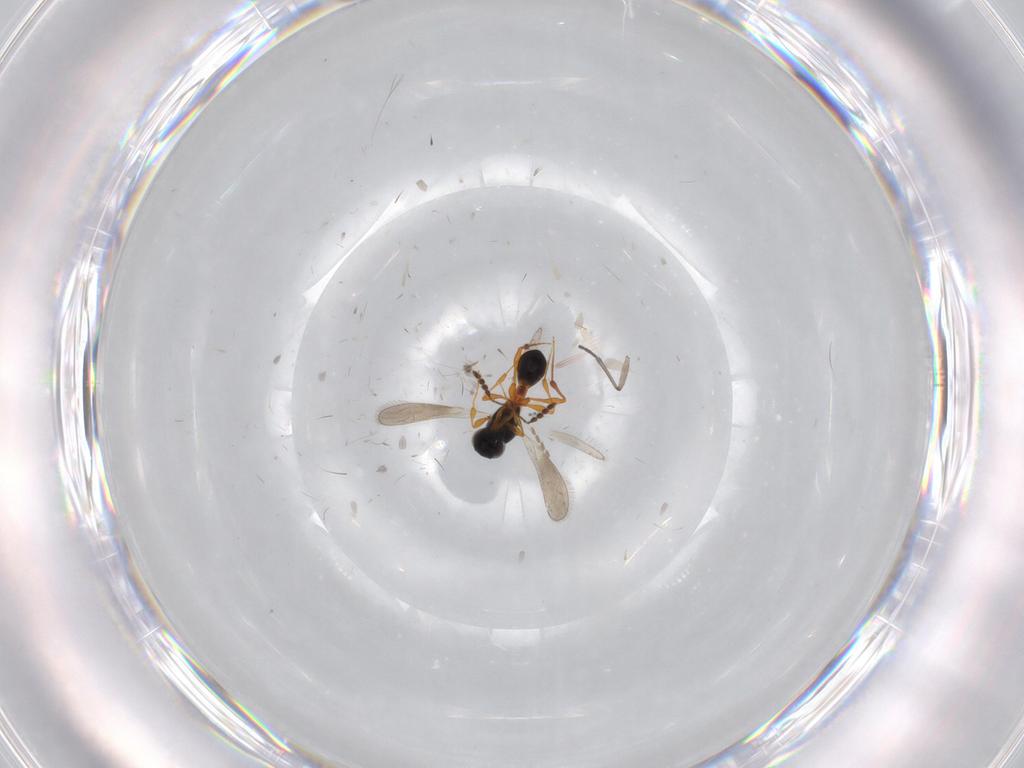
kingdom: Animalia
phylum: Arthropoda
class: Insecta
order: Hymenoptera
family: Platygastridae
